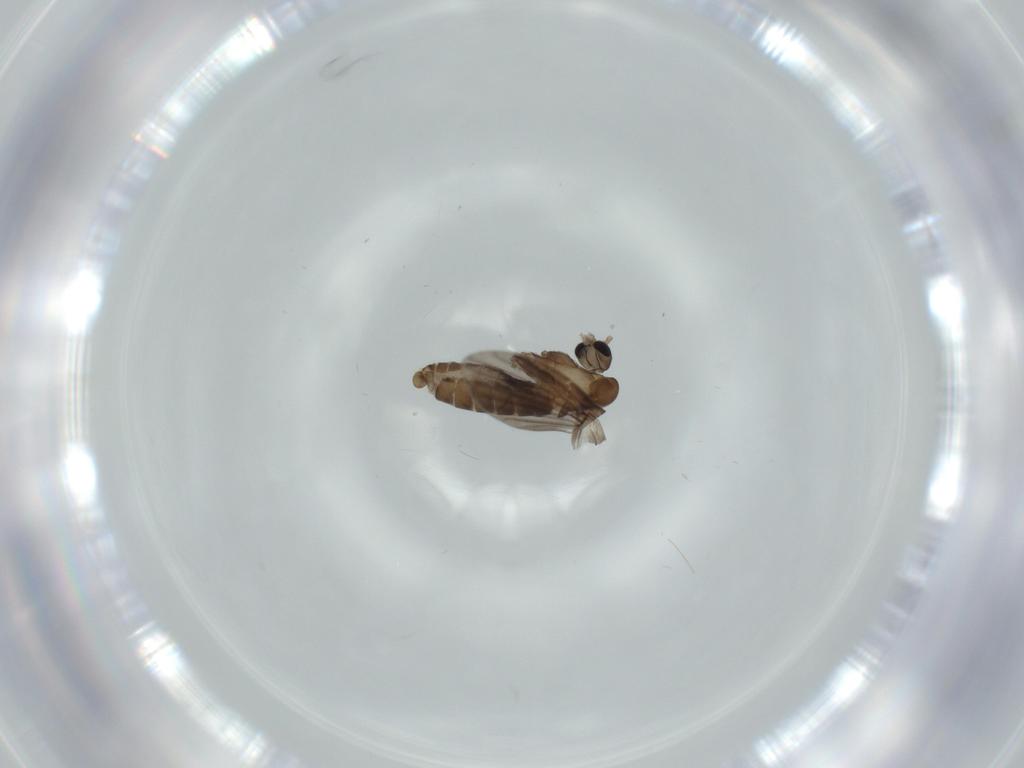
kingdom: Animalia
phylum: Arthropoda
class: Insecta
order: Diptera
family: Psychodidae
